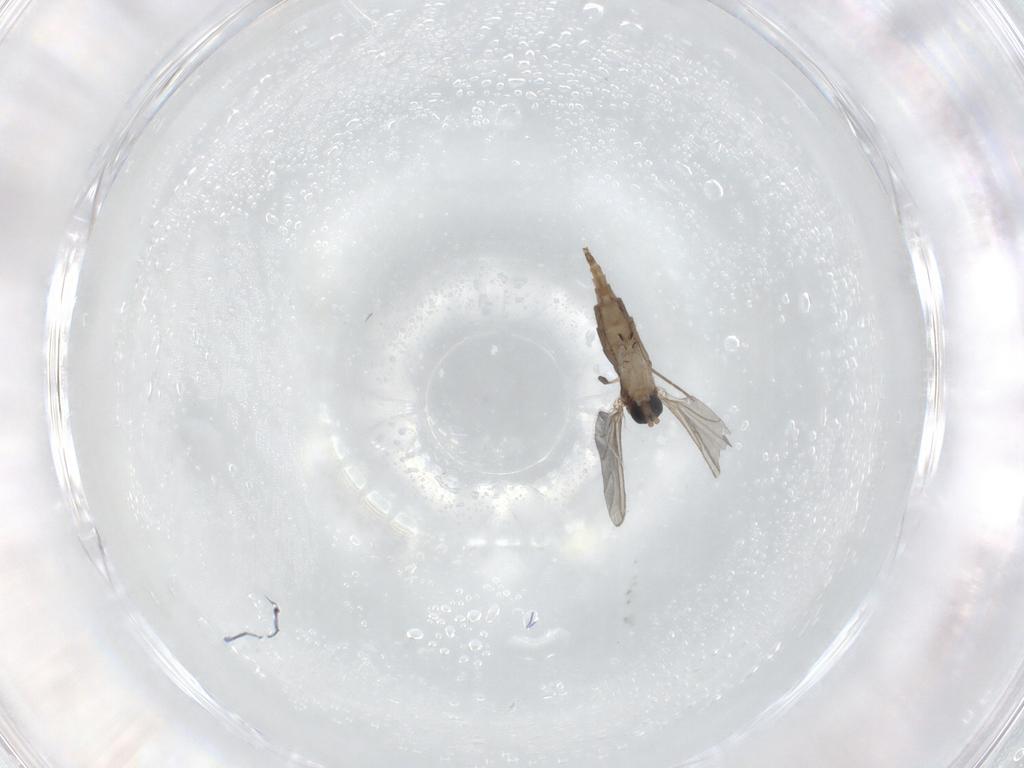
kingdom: Animalia
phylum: Arthropoda
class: Insecta
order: Diptera
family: Sciaridae
